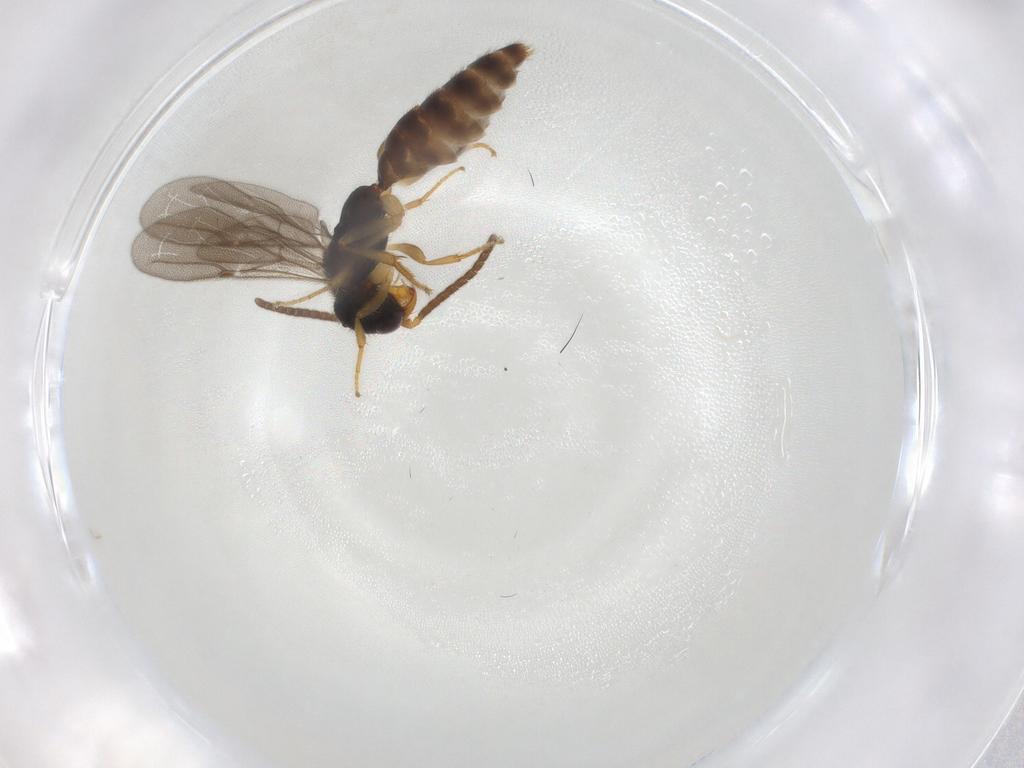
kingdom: Animalia
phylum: Arthropoda
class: Insecta
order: Hymenoptera
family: Bethylidae
